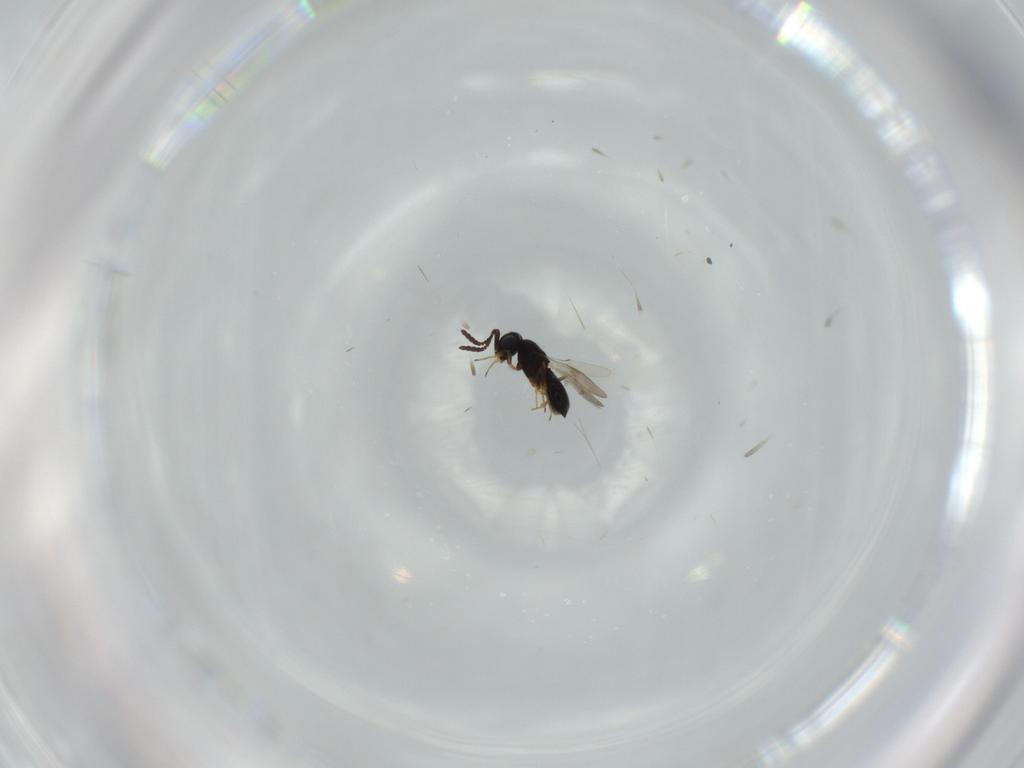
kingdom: Animalia
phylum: Arthropoda
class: Insecta
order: Hymenoptera
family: Scelionidae
